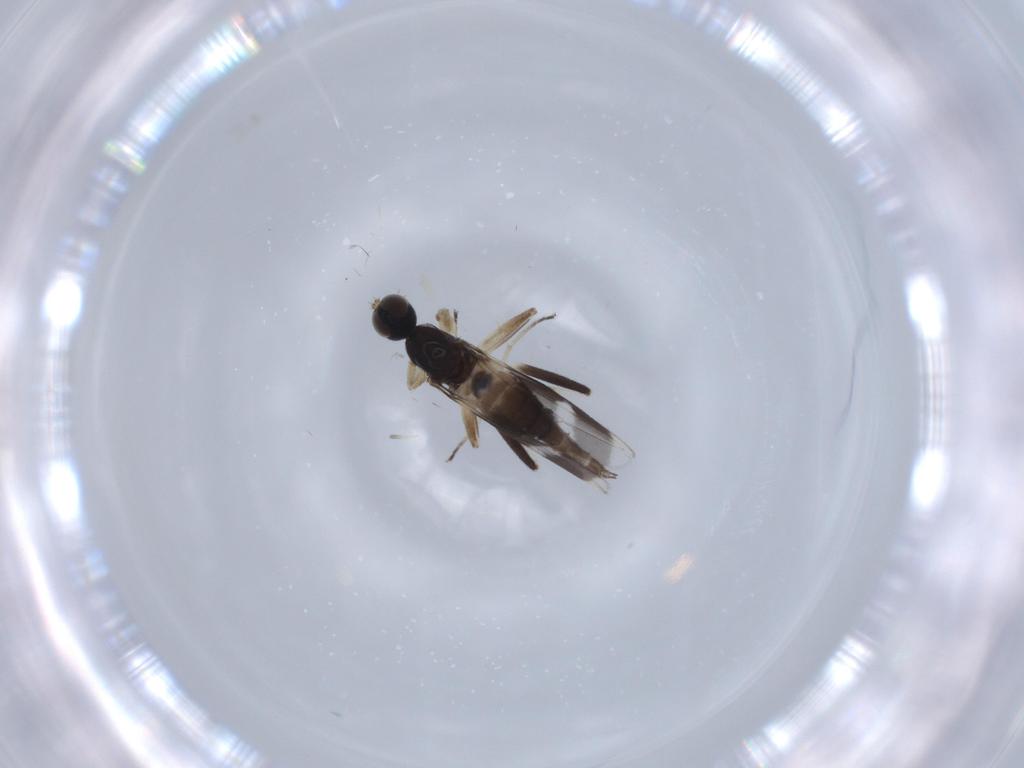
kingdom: Animalia
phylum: Arthropoda
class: Insecta
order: Diptera
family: Hybotidae
